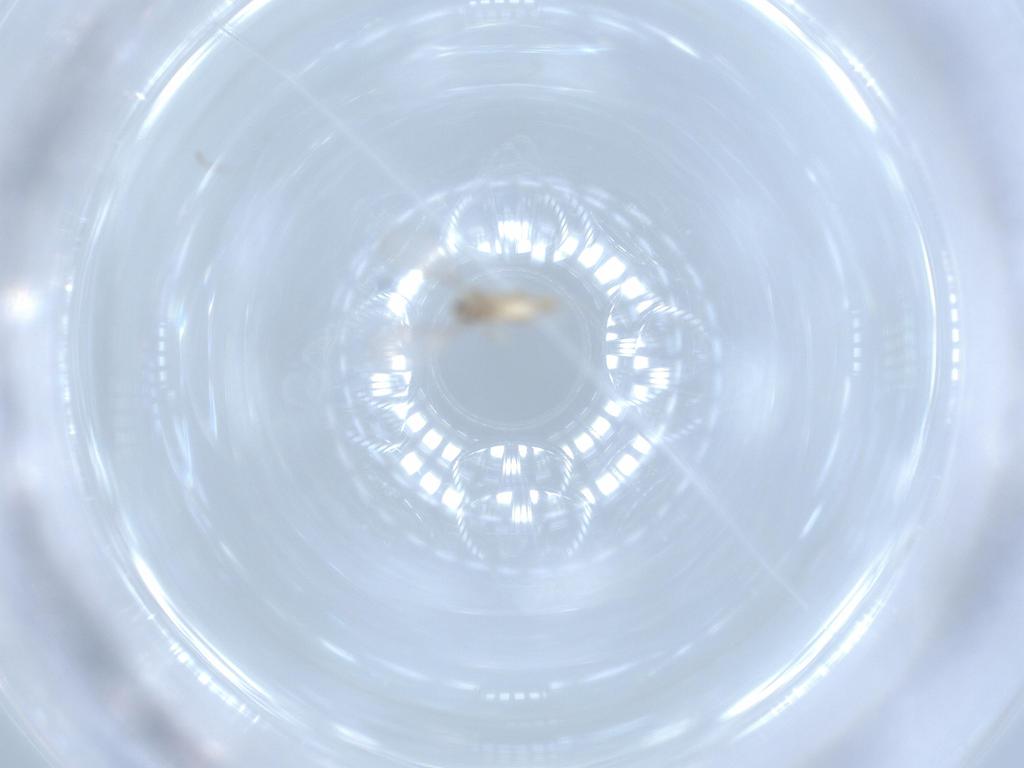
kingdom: Animalia
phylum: Arthropoda
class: Insecta
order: Diptera
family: Cecidomyiidae
